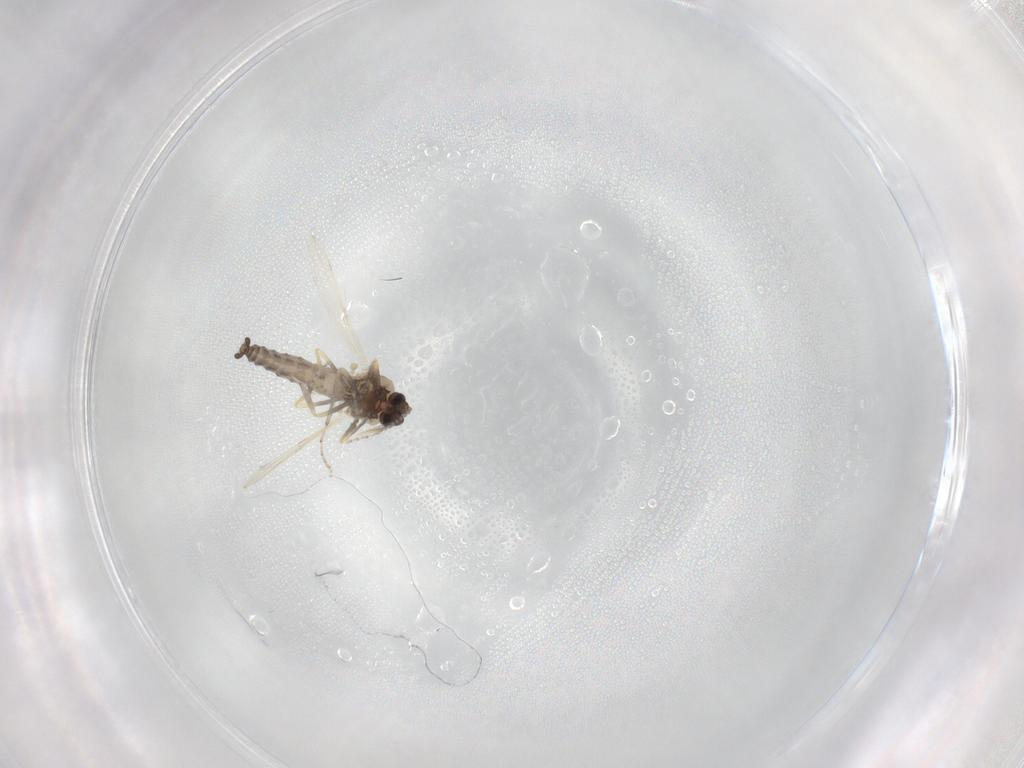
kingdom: Animalia
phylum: Arthropoda
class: Insecta
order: Diptera
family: Ceratopogonidae
